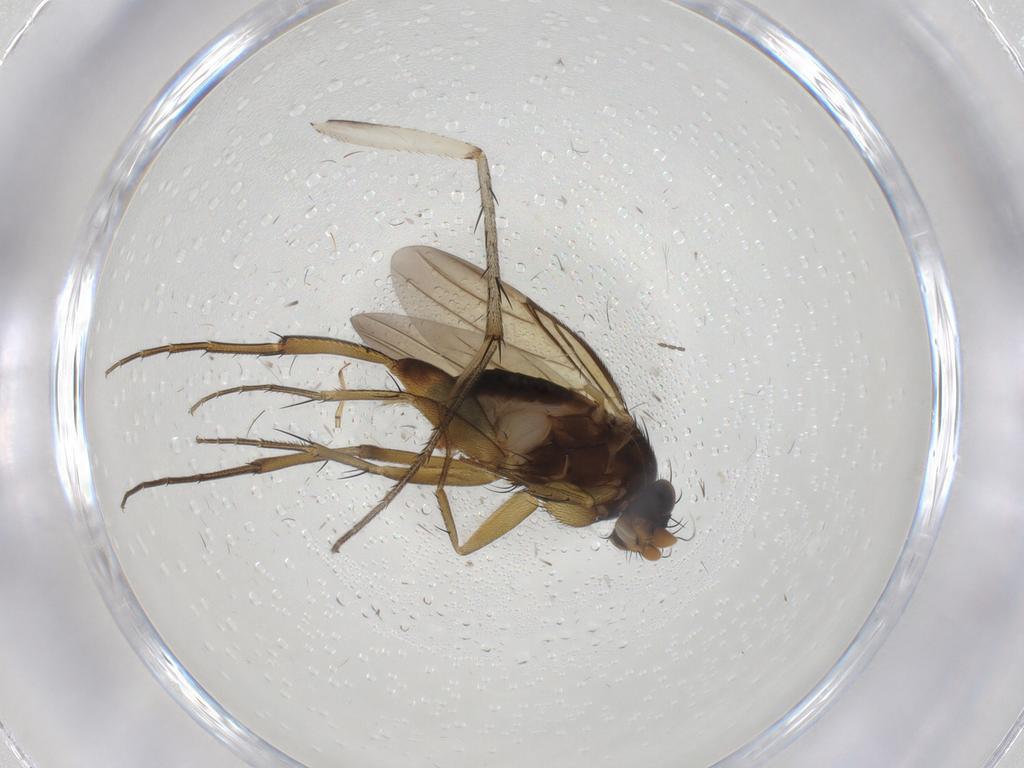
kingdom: Animalia
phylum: Arthropoda
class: Insecta
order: Diptera
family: Phoridae
